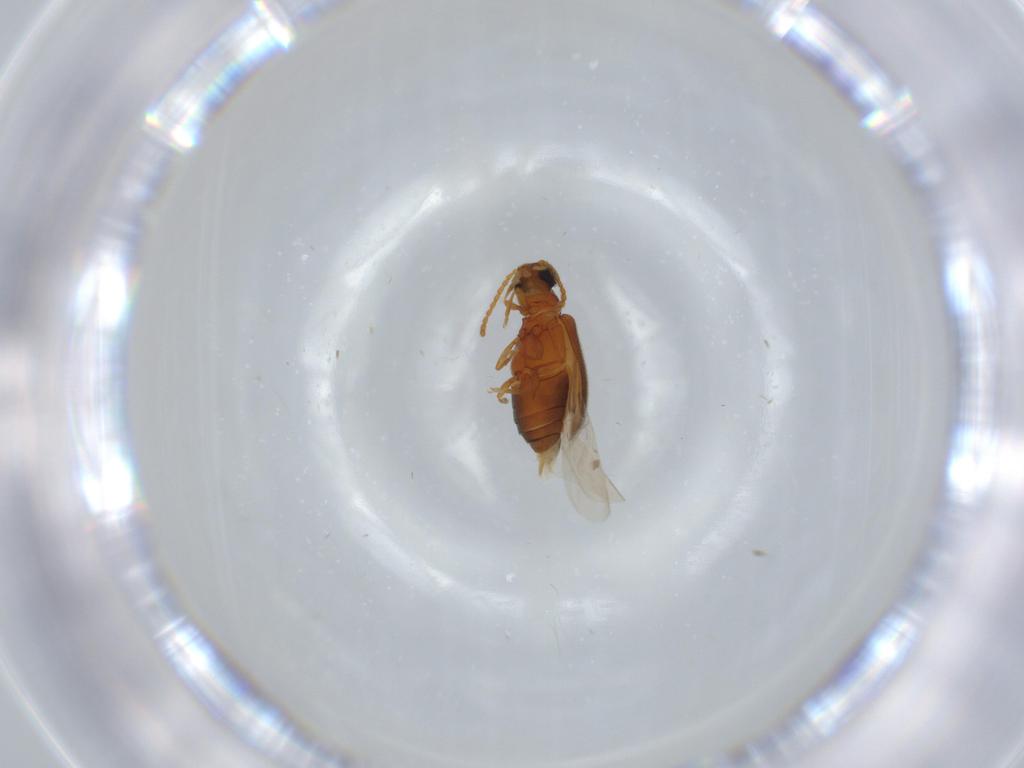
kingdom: Animalia
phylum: Arthropoda
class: Insecta
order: Coleoptera
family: Aderidae
